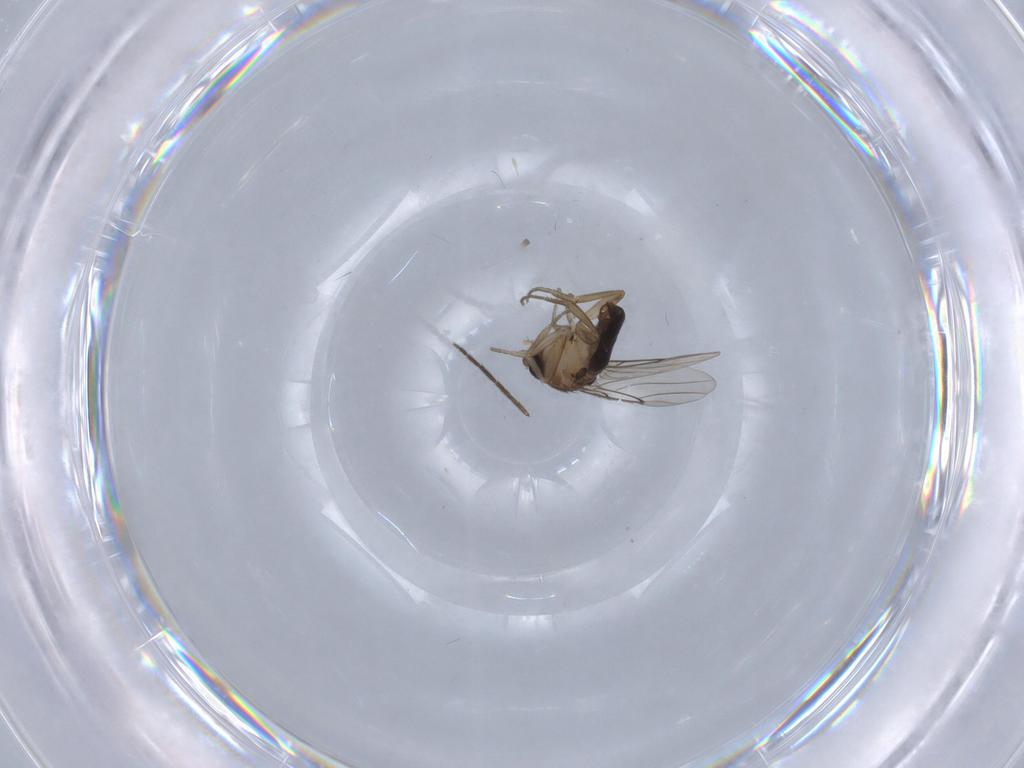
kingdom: Animalia
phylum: Arthropoda
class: Insecta
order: Diptera
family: Phoridae
